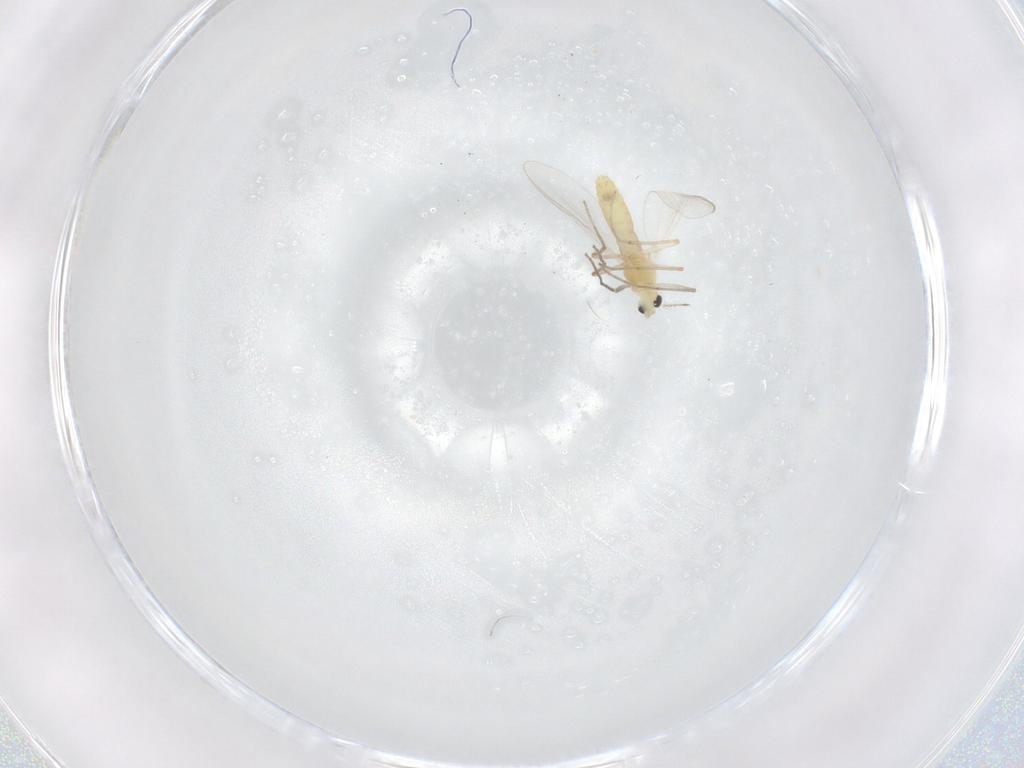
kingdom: Animalia
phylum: Arthropoda
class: Insecta
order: Diptera
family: Chironomidae
